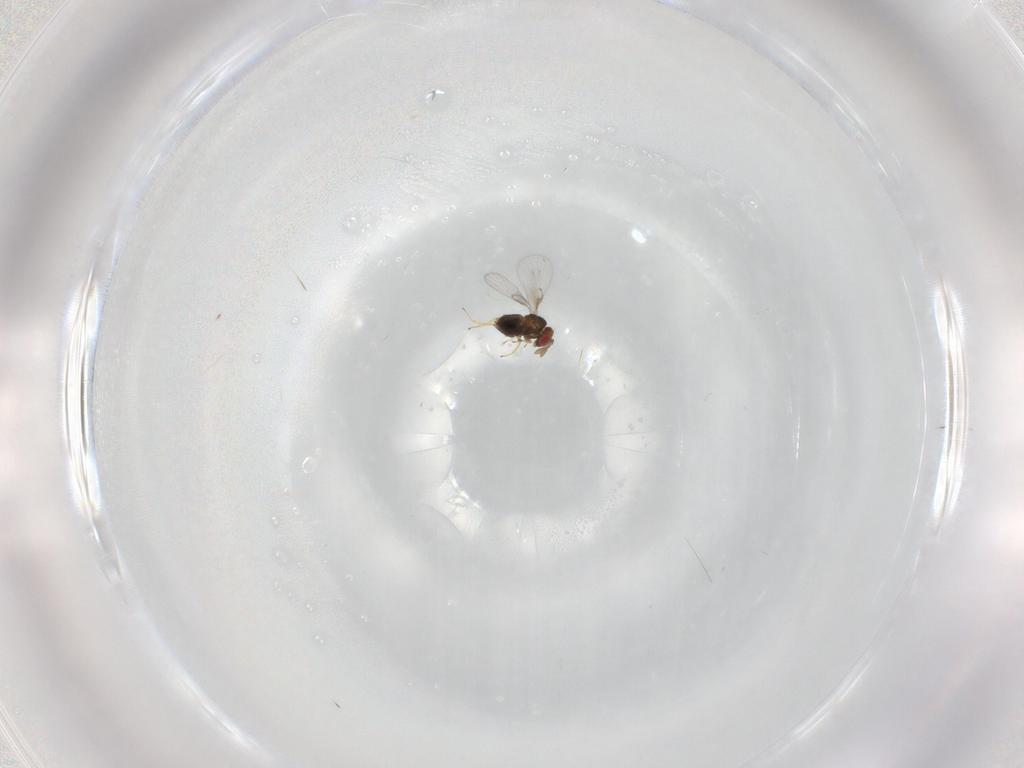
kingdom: Animalia
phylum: Arthropoda
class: Insecta
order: Hymenoptera
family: Trichogrammatidae
